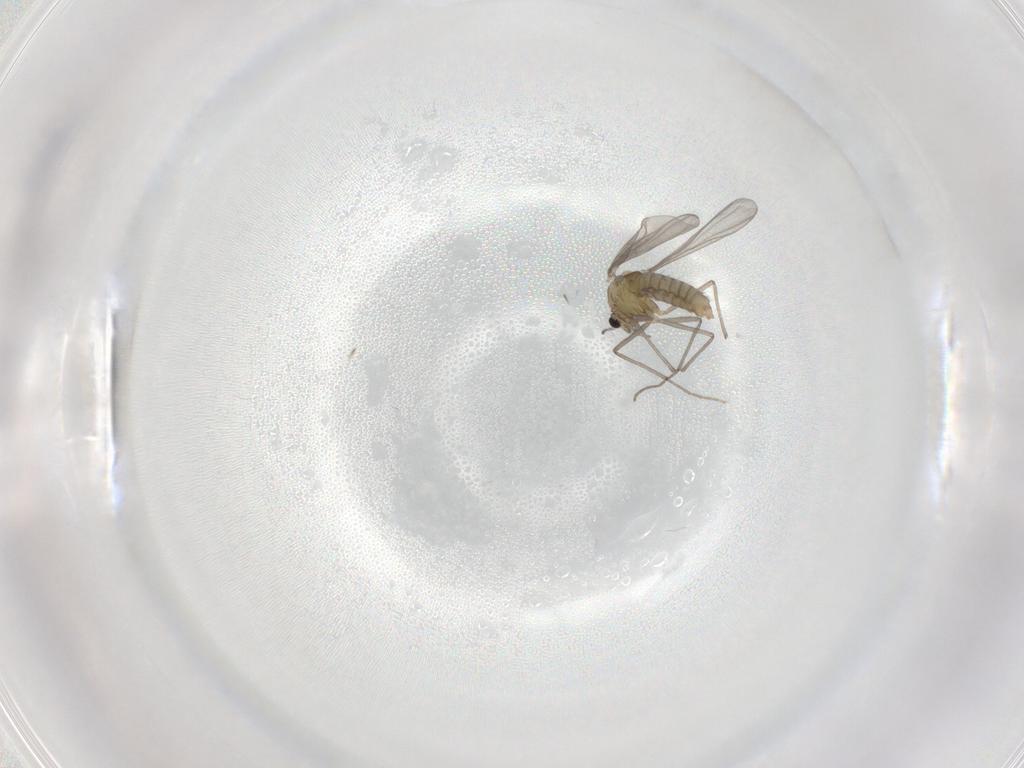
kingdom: Animalia
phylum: Arthropoda
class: Insecta
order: Diptera
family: Chironomidae
